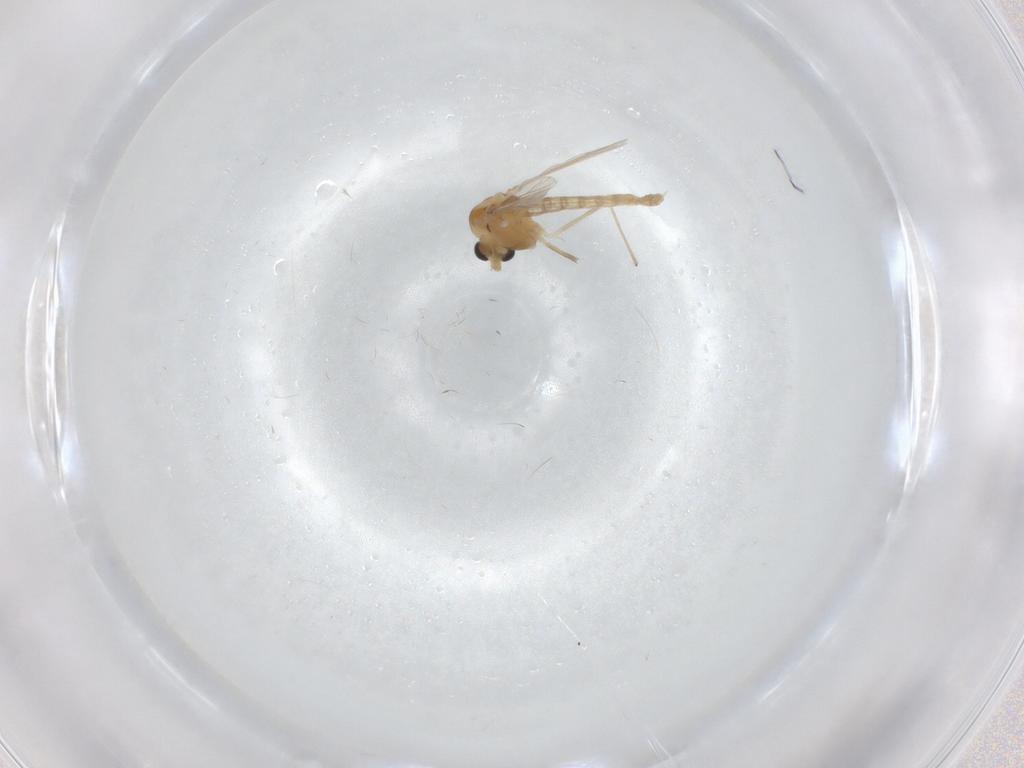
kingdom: Animalia
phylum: Arthropoda
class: Insecta
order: Diptera
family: Chironomidae
